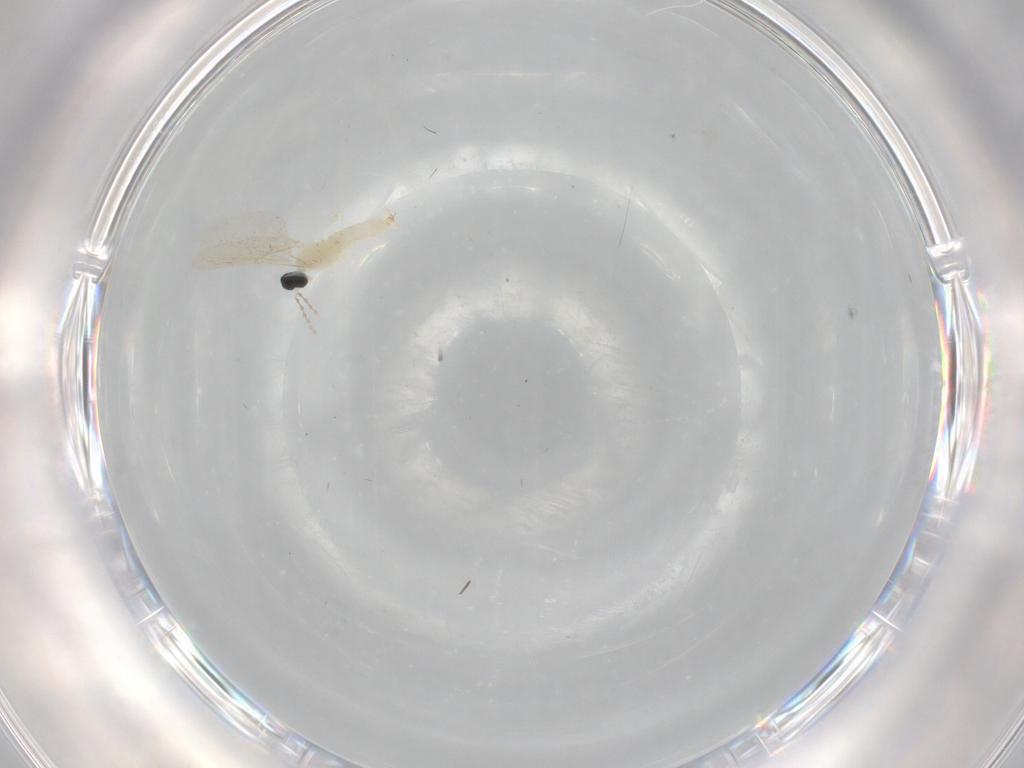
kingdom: Animalia
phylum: Arthropoda
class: Insecta
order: Diptera
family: Cecidomyiidae
